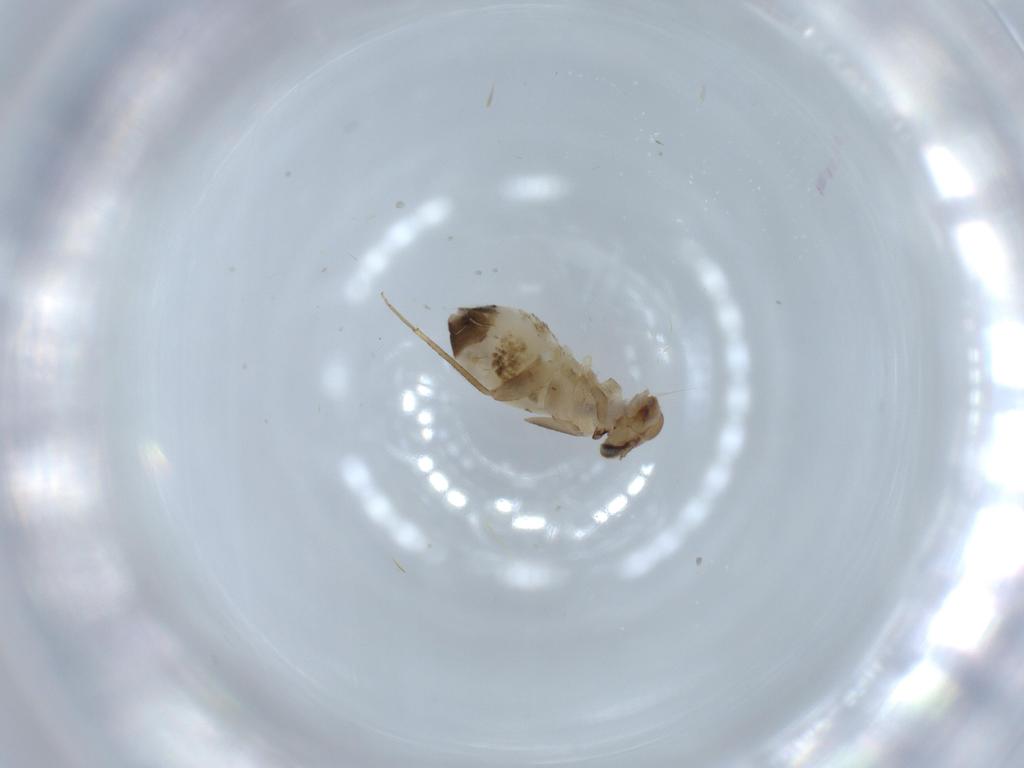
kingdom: Animalia
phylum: Arthropoda
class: Insecta
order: Psocodea
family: Lepidopsocidae
